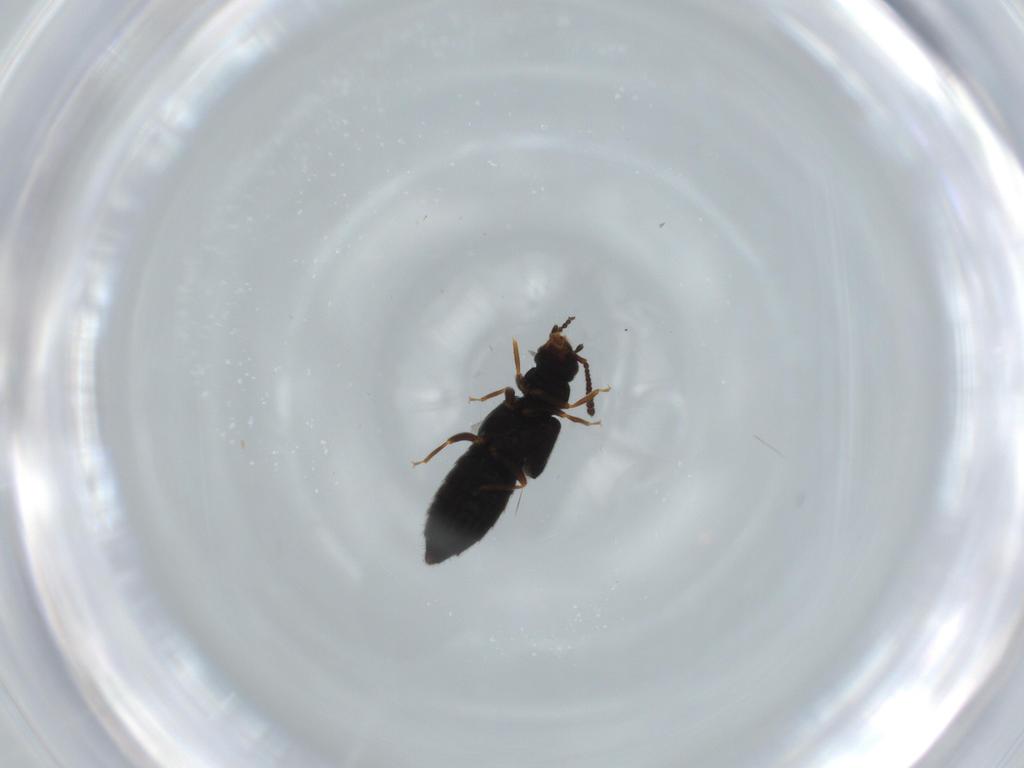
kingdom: Animalia
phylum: Arthropoda
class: Insecta
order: Coleoptera
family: Staphylinidae
